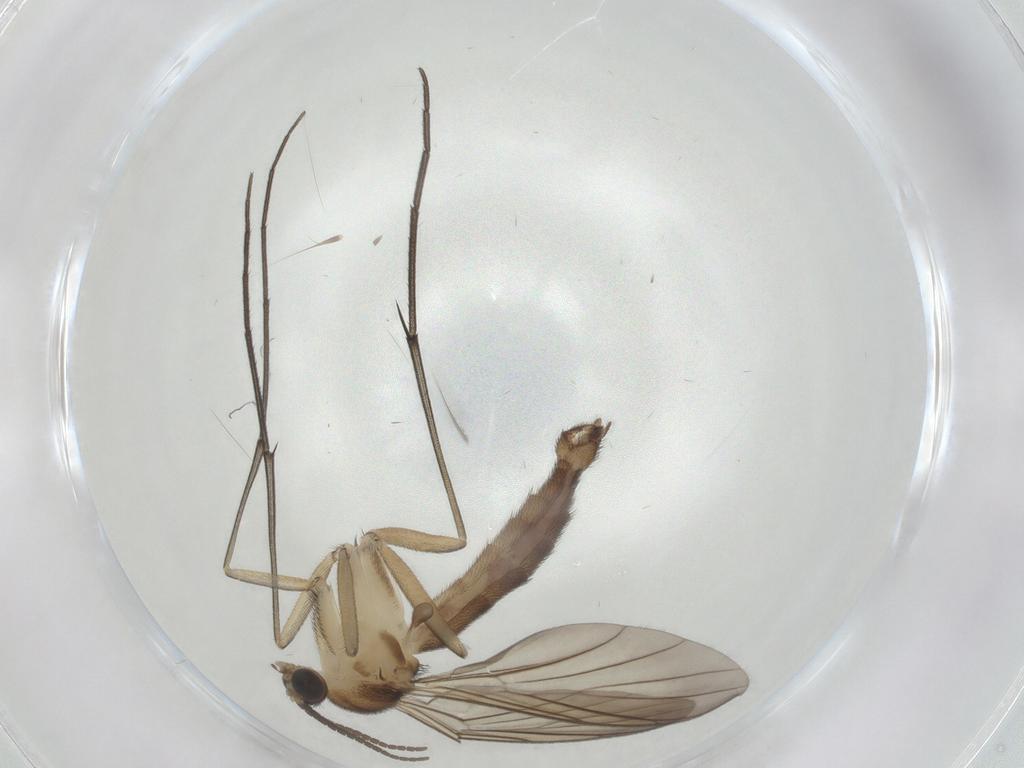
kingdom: Animalia
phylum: Arthropoda
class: Insecta
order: Diptera
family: Keroplatidae
